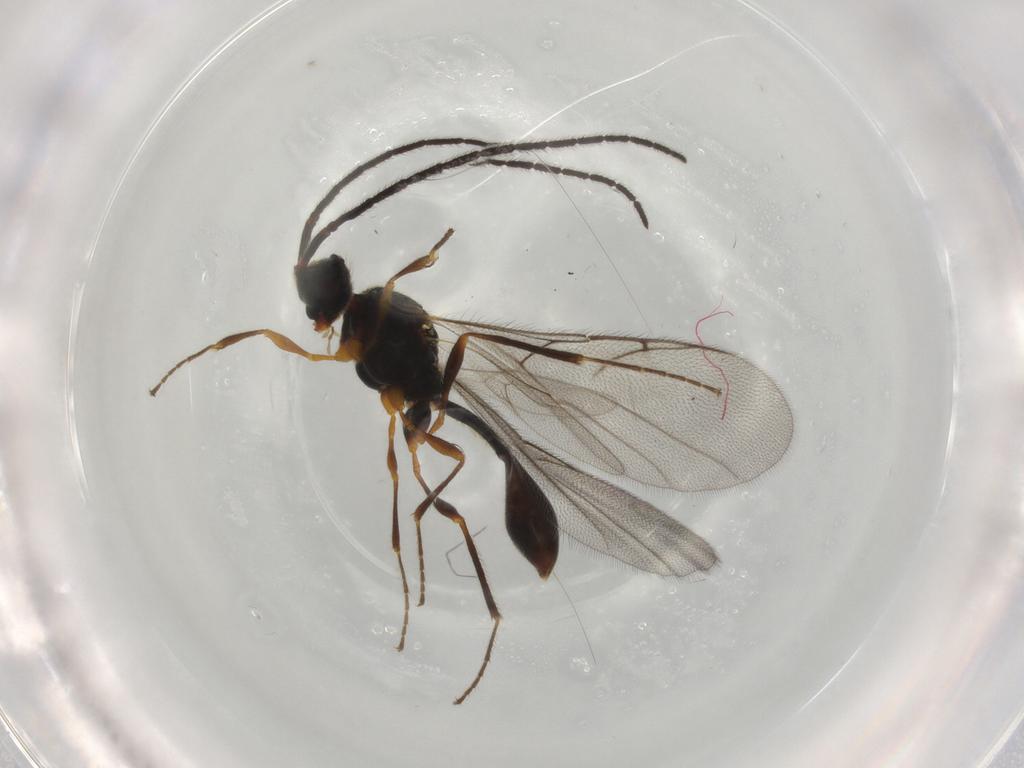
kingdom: Animalia
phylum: Arthropoda
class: Insecta
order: Hymenoptera
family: Diapriidae
